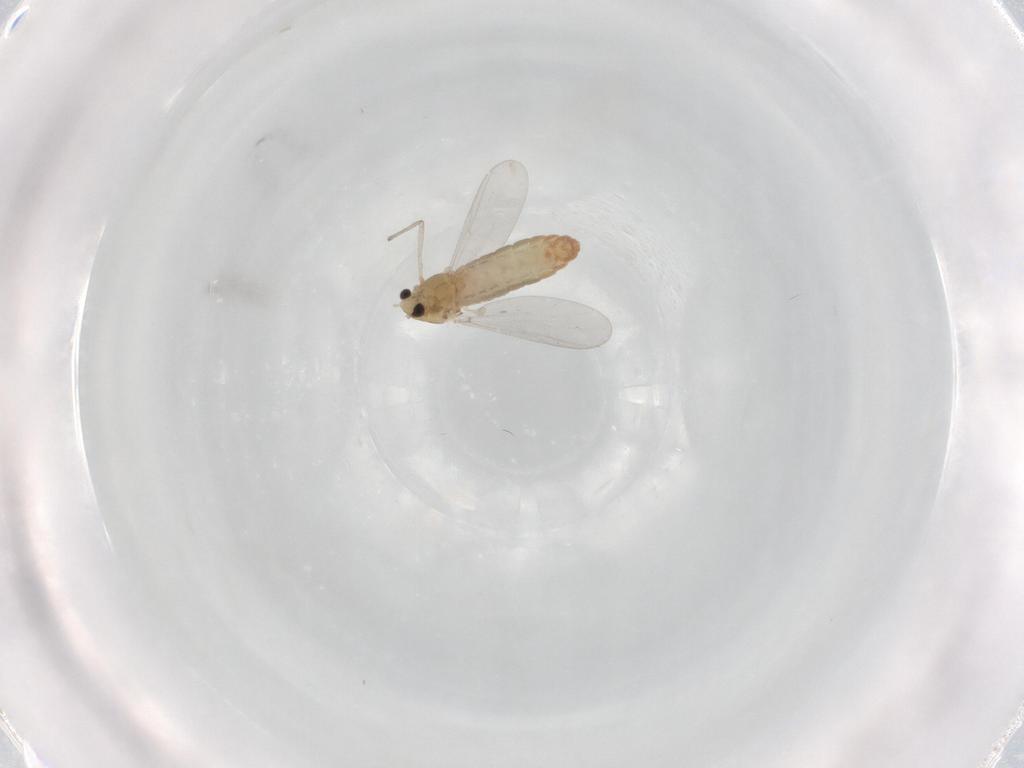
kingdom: Animalia
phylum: Arthropoda
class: Insecta
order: Diptera
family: Chironomidae
